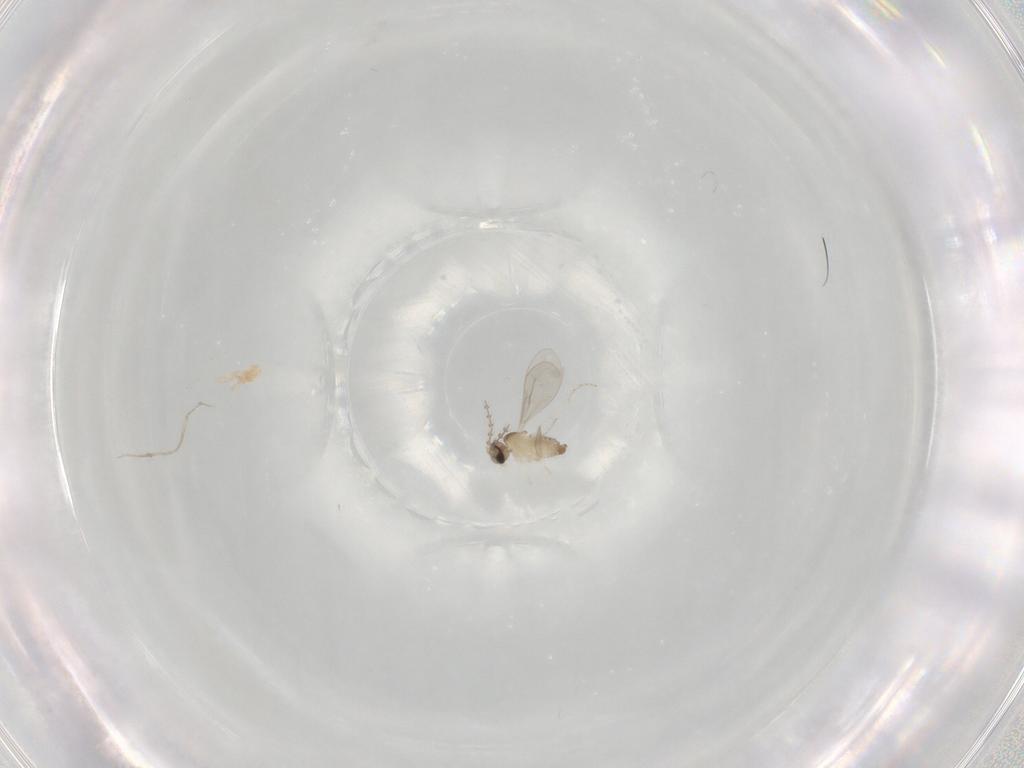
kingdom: Animalia
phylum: Arthropoda
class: Insecta
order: Diptera
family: Cecidomyiidae
